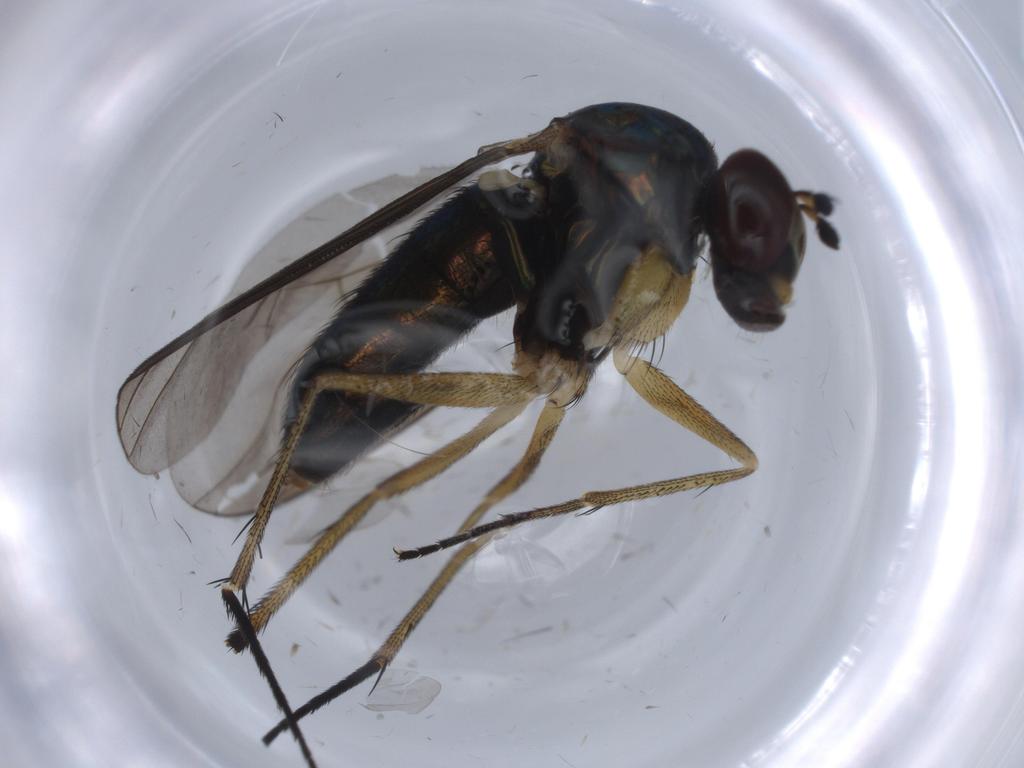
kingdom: Animalia
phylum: Arthropoda
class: Insecta
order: Diptera
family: Dolichopodidae
